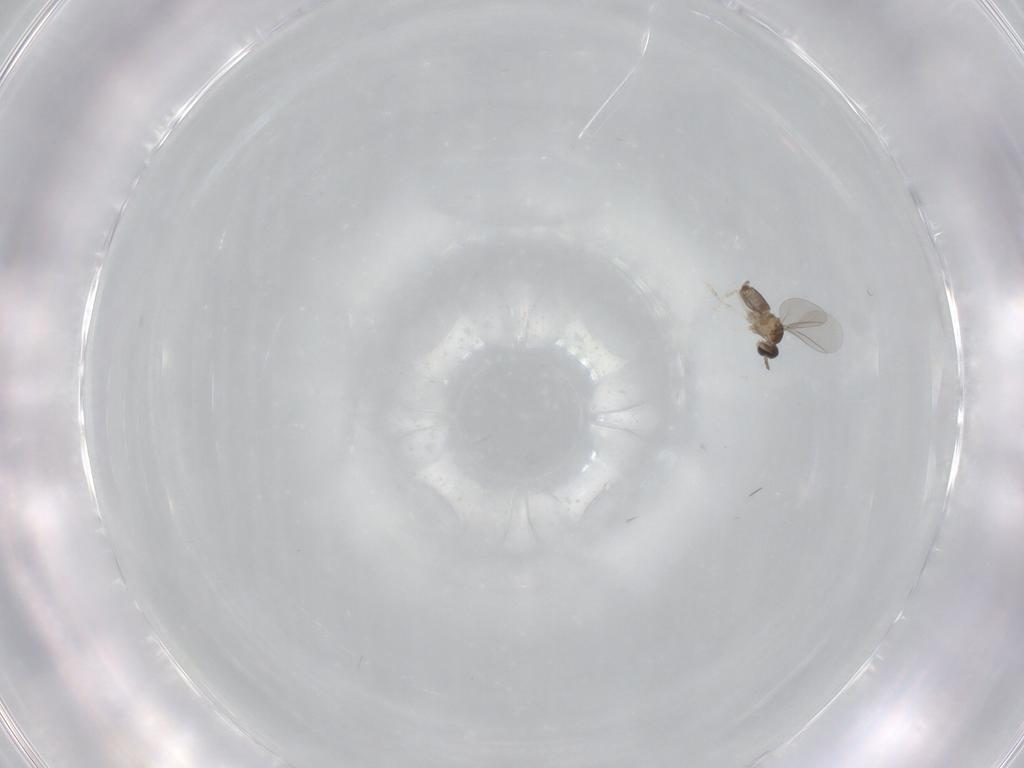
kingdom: Animalia
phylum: Arthropoda
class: Insecta
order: Diptera
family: Cecidomyiidae
